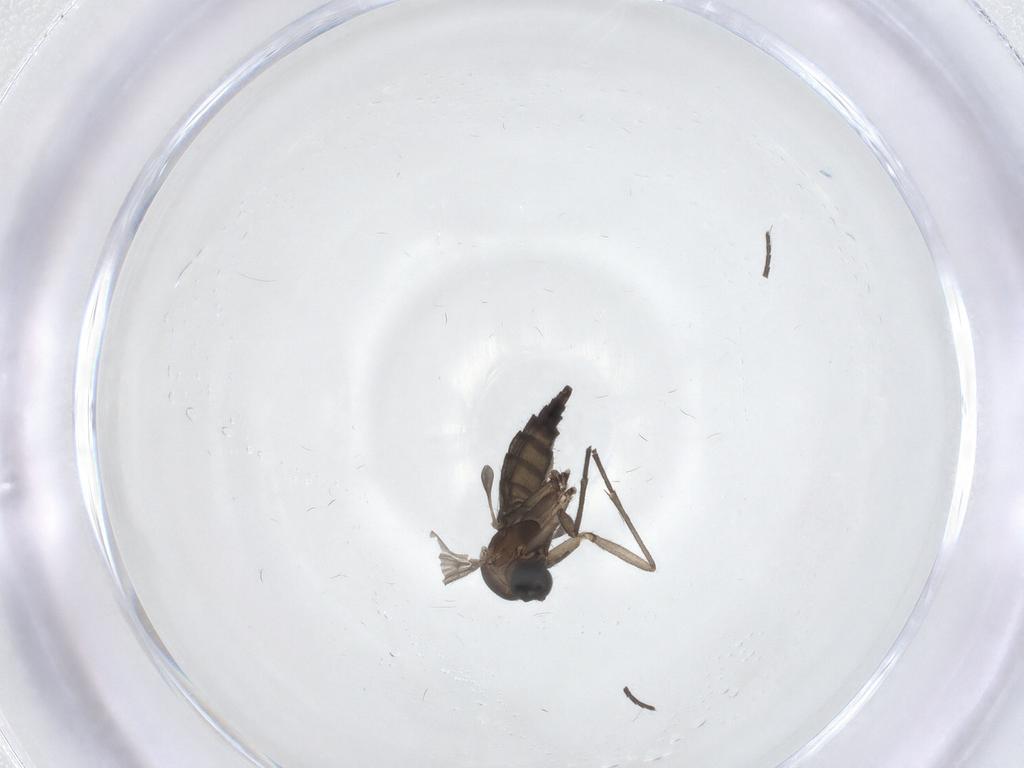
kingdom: Animalia
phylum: Arthropoda
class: Insecta
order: Diptera
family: Sciaridae
